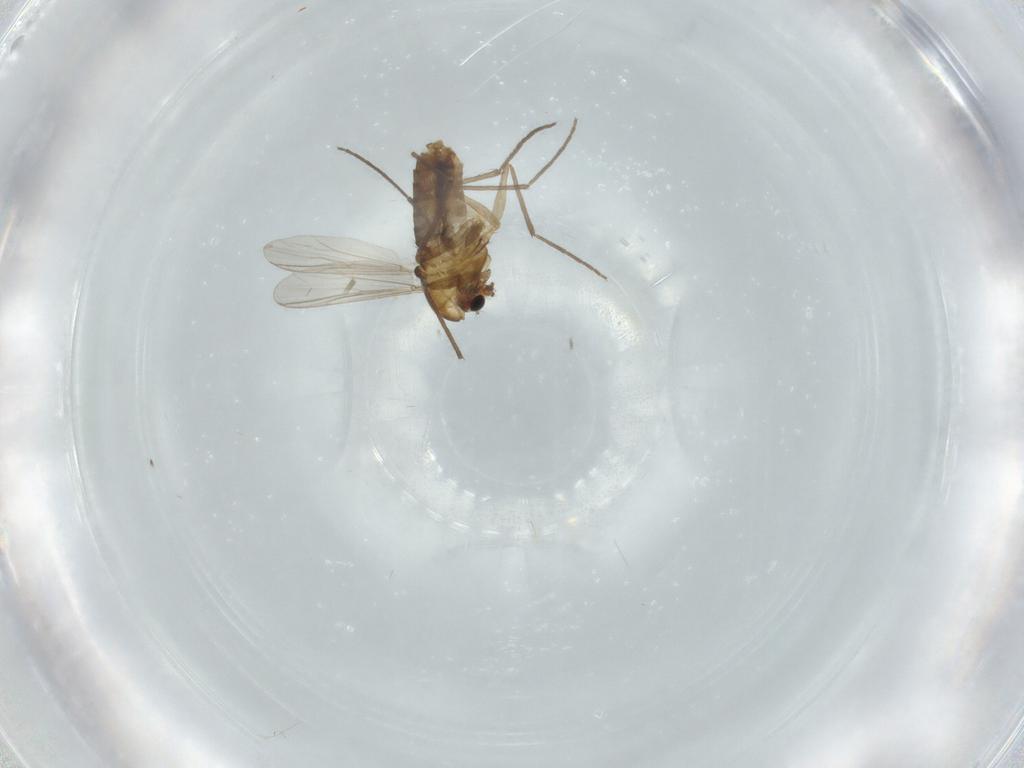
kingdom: Animalia
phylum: Arthropoda
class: Insecta
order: Diptera
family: Chironomidae
